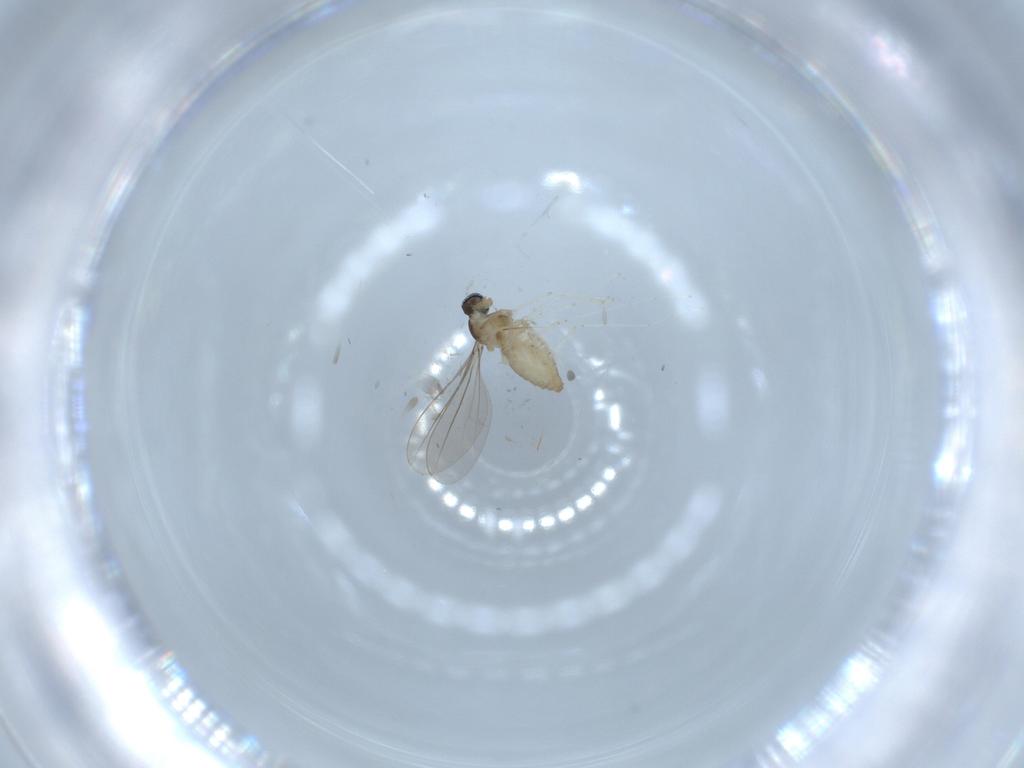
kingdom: Animalia
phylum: Arthropoda
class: Insecta
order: Diptera
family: Cecidomyiidae
